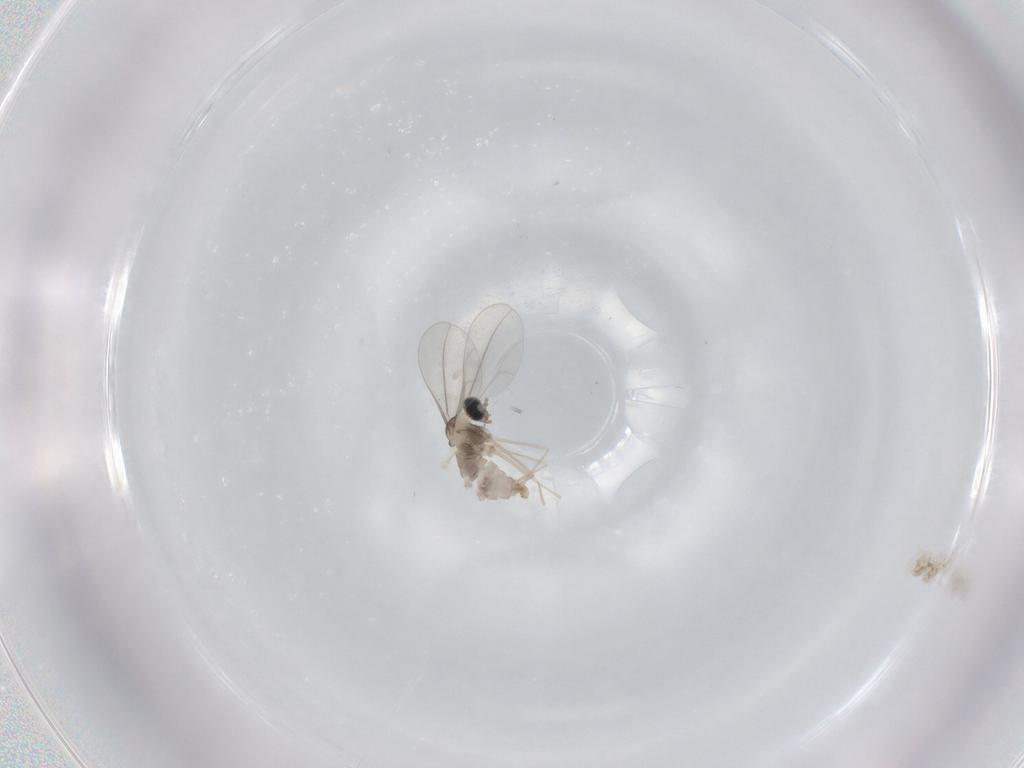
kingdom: Animalia
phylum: Arthropoda
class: Insecta
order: Diptera
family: Cecidomyiidae
